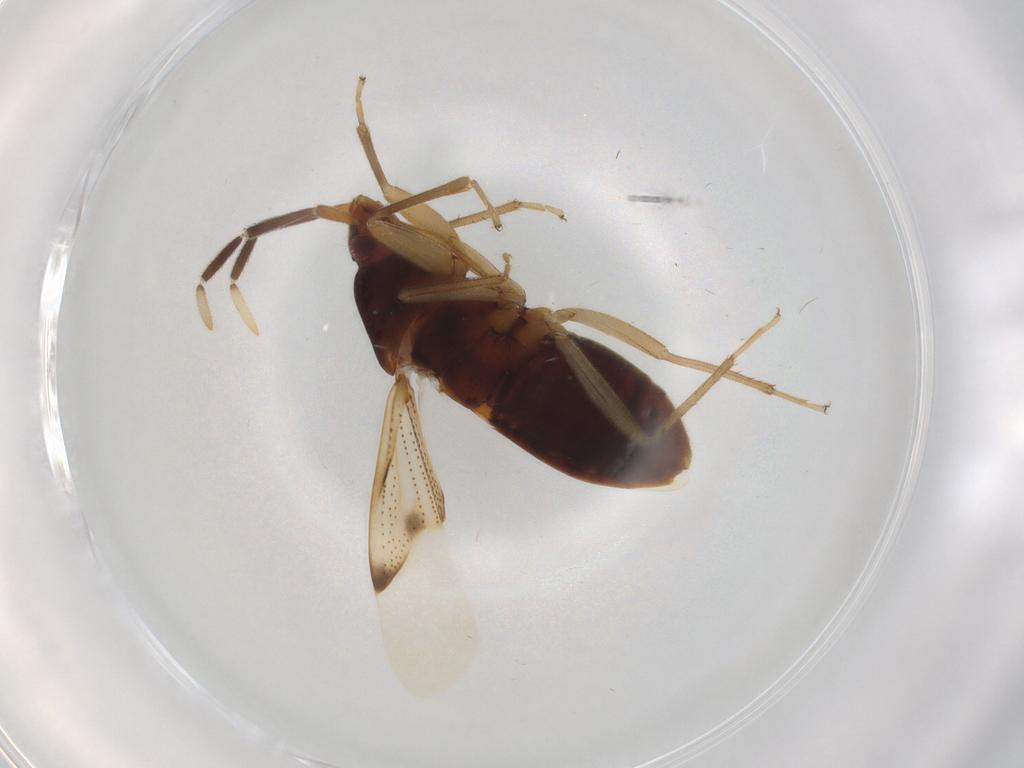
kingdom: Animalia
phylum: Arthropoda
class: Insecta
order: Hemiptera
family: Rhyparochromidae
